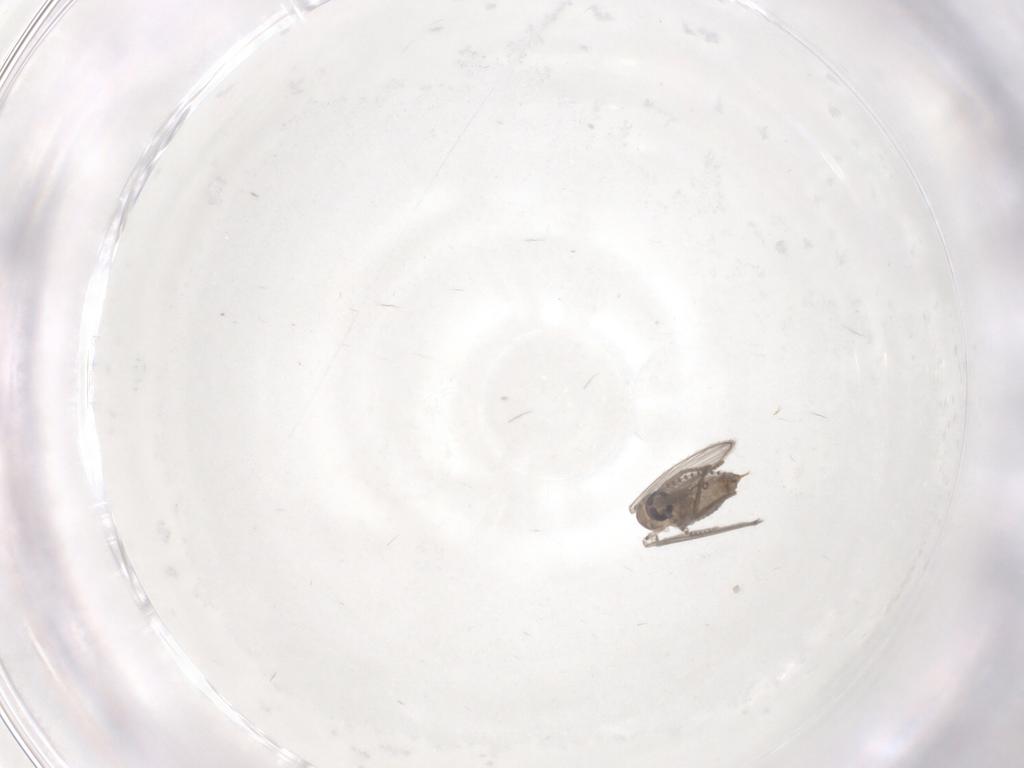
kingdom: Animalia
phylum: Arthropoda
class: Insecta
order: Diptera
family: Psychodidae
